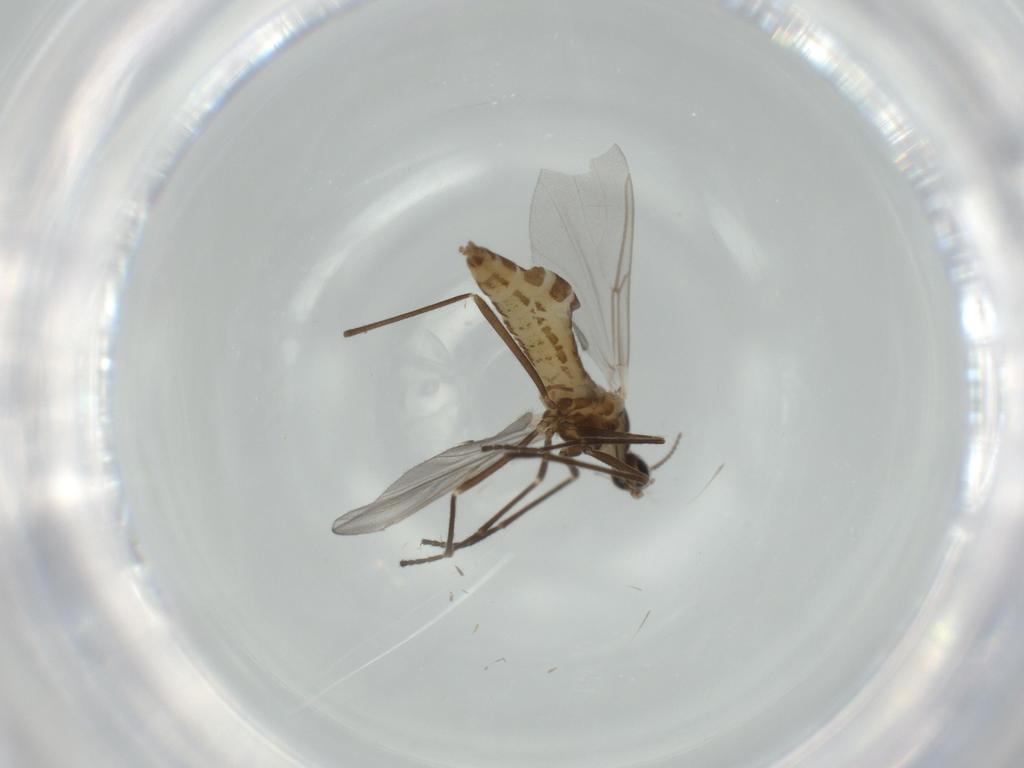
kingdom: Animalia
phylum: Arthropoda
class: Insecta
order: Diptera
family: Cecidomyiidae
